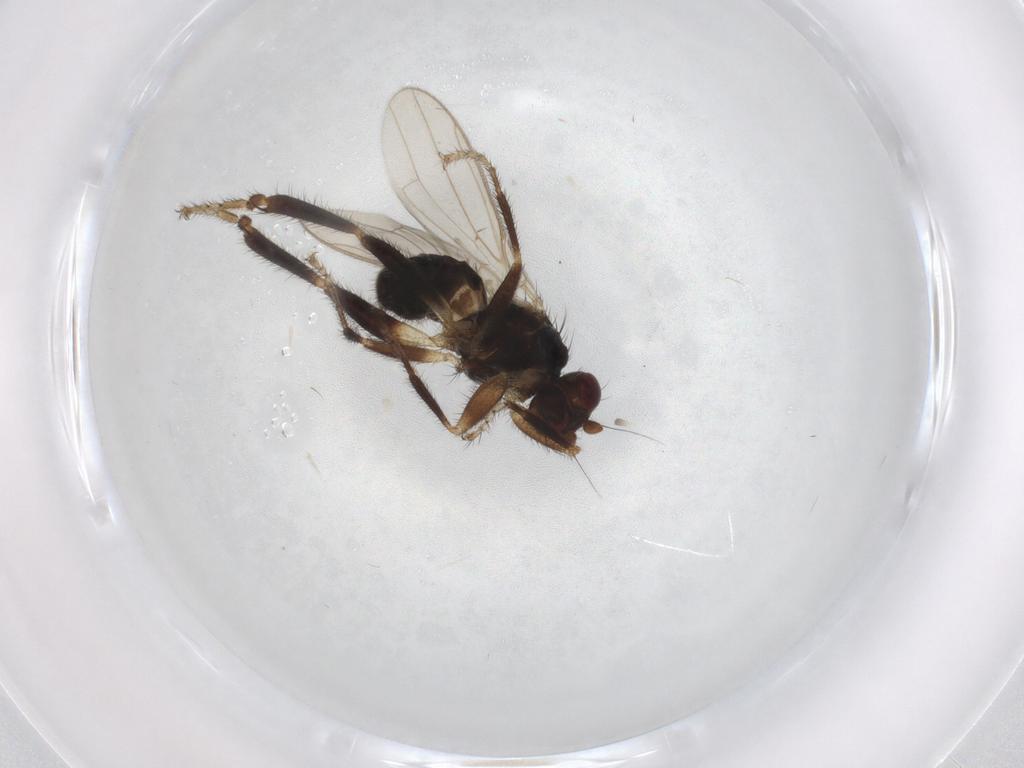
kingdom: Animalia
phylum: Arthropoda
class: Insecta
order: Diptera
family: Sphaeroceridae
